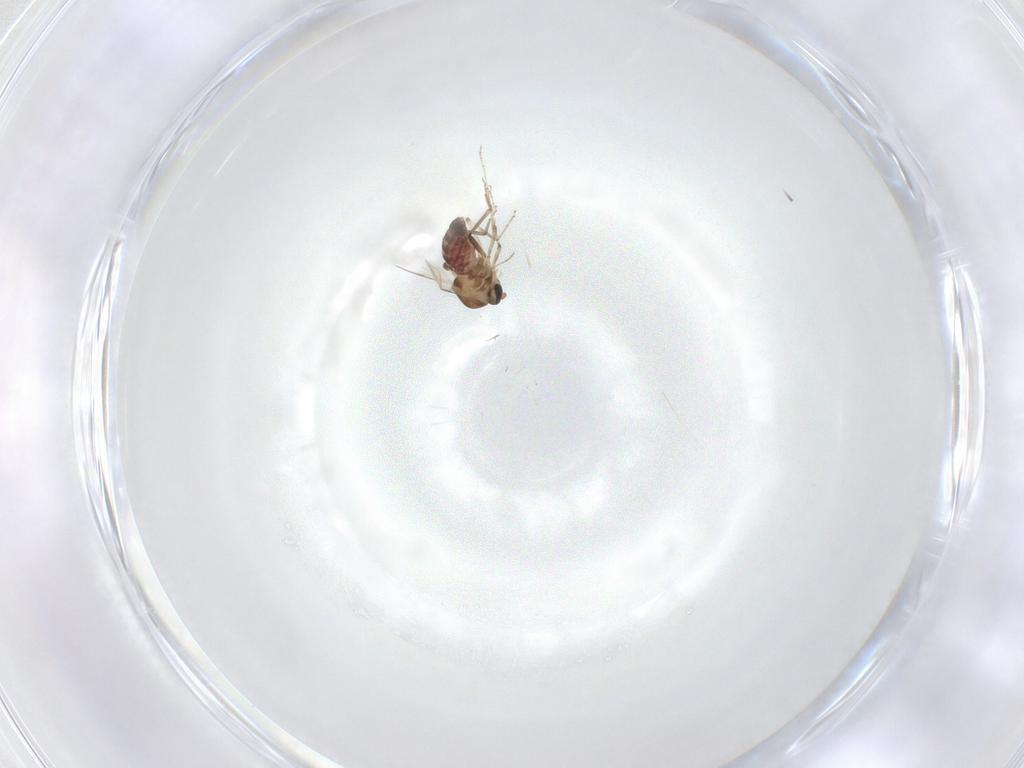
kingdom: Animalia
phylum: Arthropoda
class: Insecta
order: Diptera
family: Ceratopogonidae
